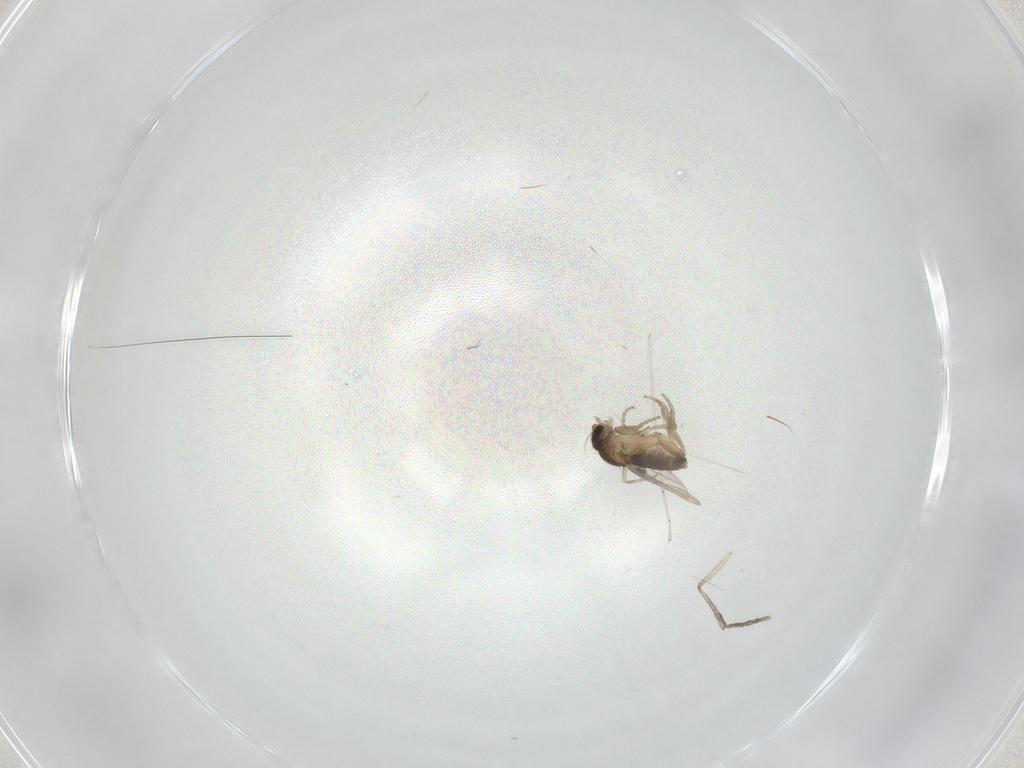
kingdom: Animalia
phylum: Arthropoda
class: Insecta
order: Diptera
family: Phoridae
